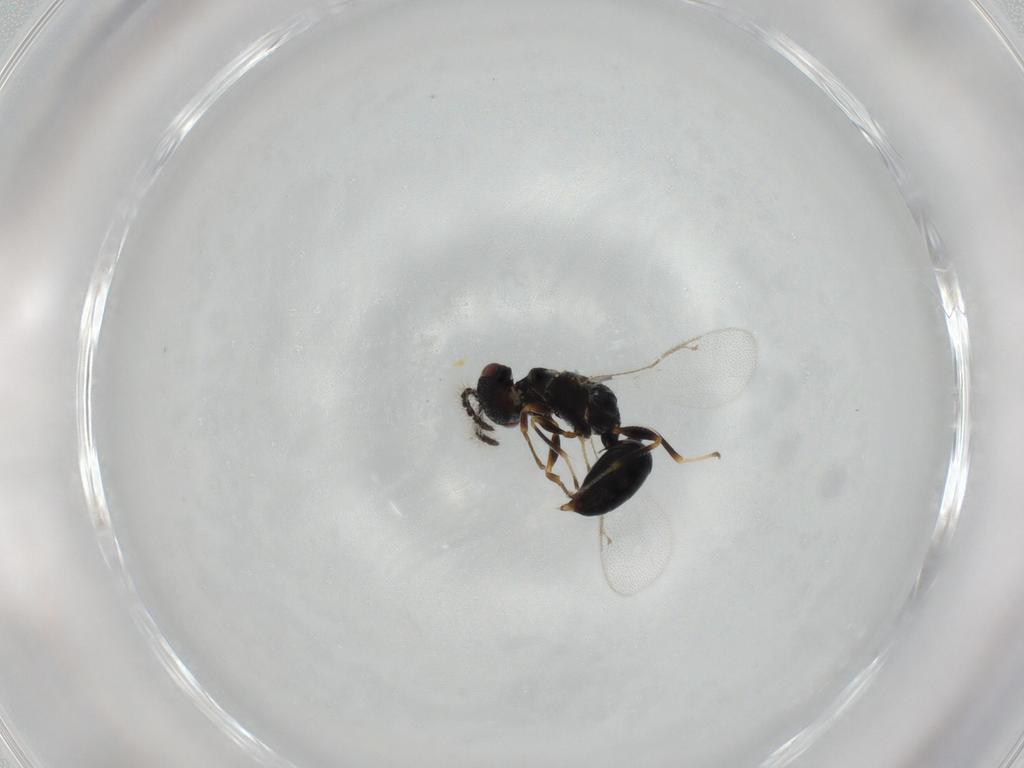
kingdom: Animalia
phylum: Arthropoda
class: Insecta
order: Hymenoptera
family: Eurytomidae
